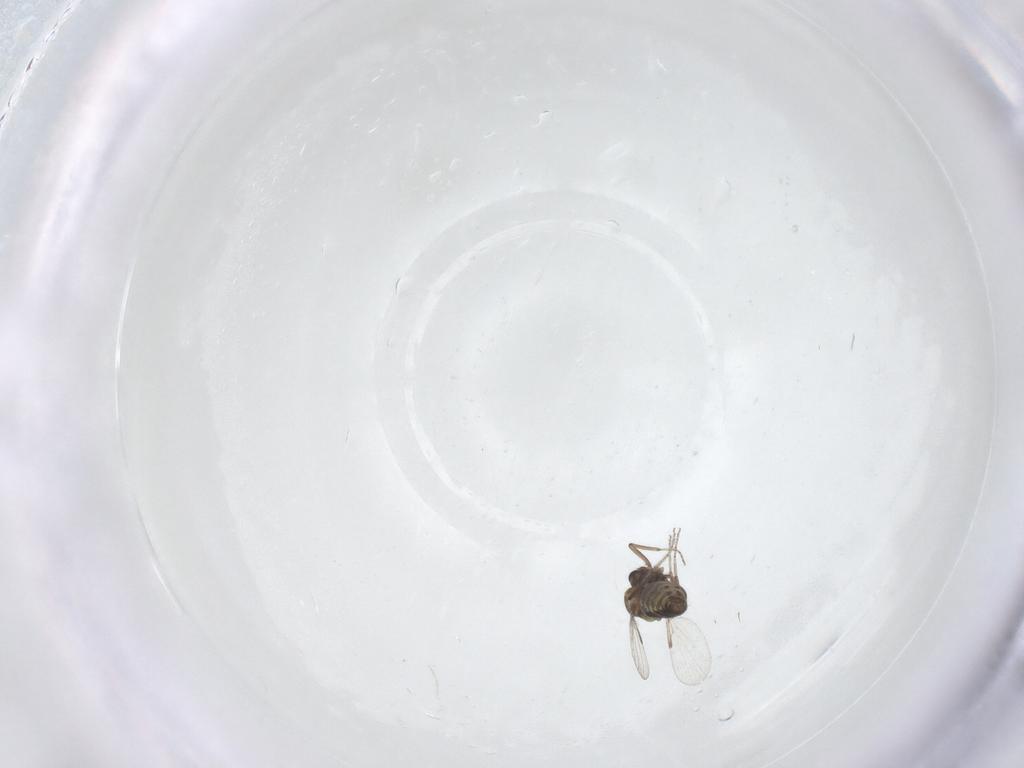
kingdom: Animalia
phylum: Arthropoda
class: Insecta
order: Diptera
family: Ceratopogonidae
